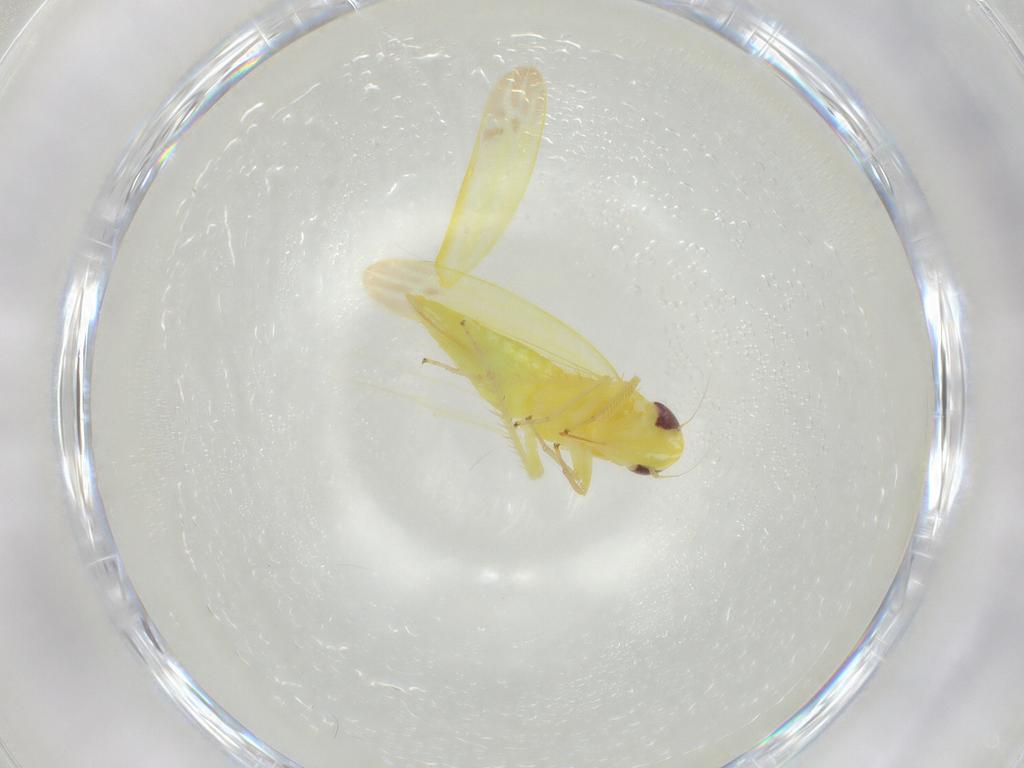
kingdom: Animalia
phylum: Arthropoda
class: Insecta
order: Hemiptera
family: Cicadellidae
